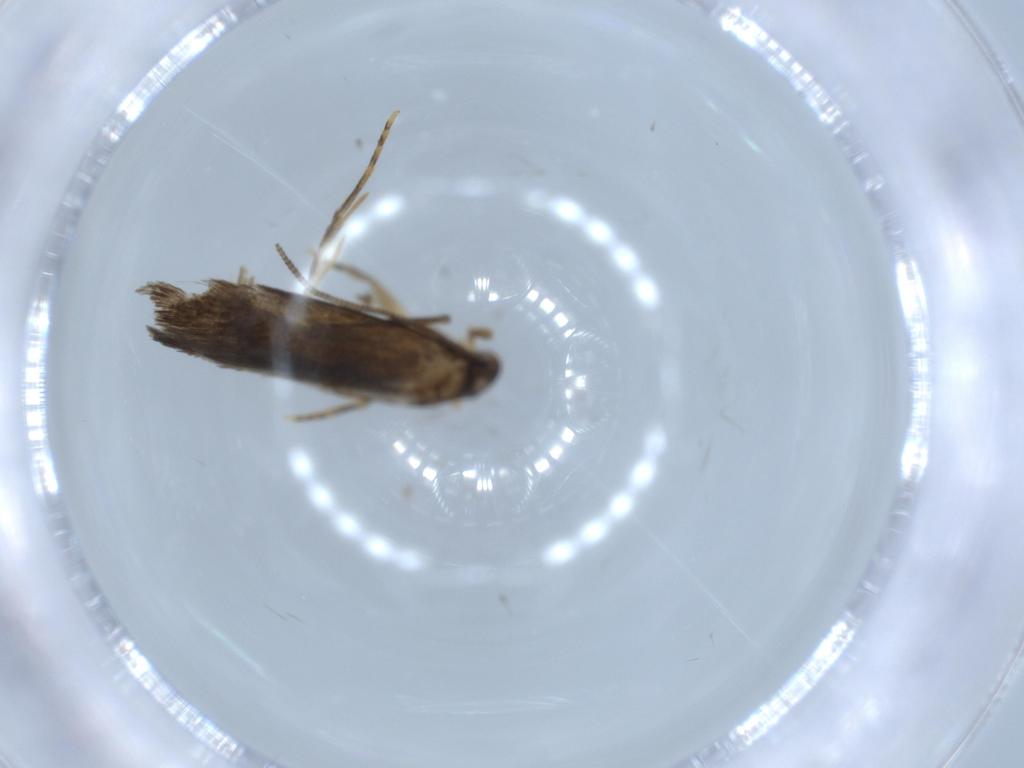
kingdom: Animalia
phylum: Arthropoda
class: Insecta
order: Lepidoptera
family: Tineidae
